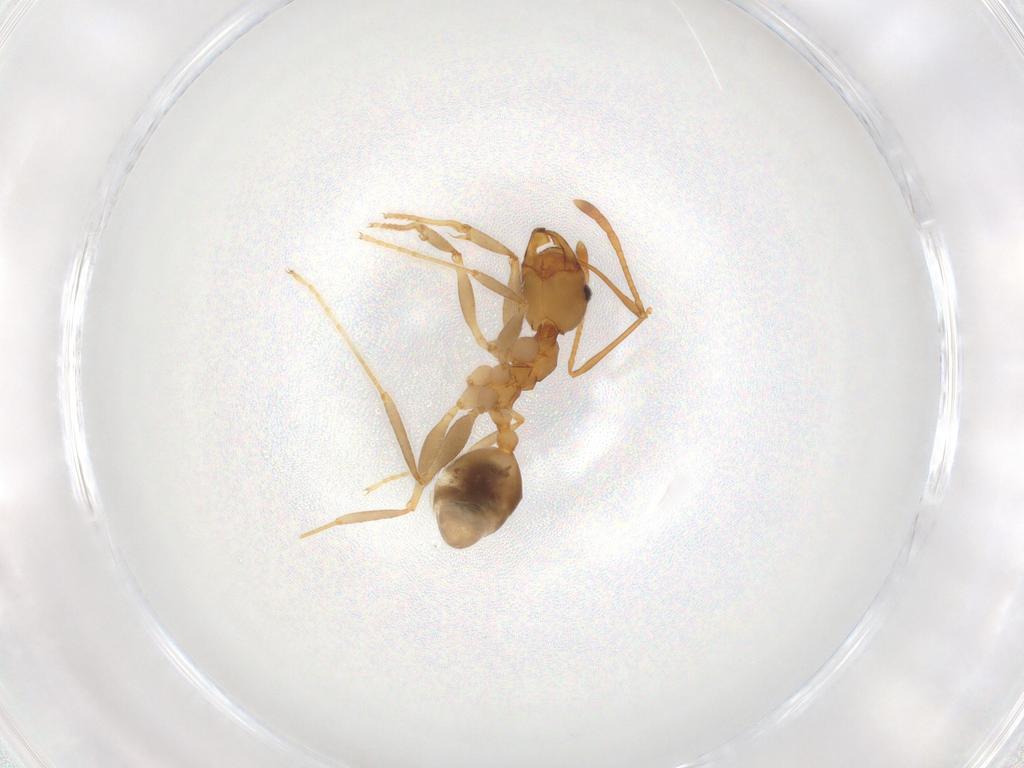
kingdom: Animalia
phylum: Arthropoda
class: Insecta
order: Hymenoptera
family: Formicidae
